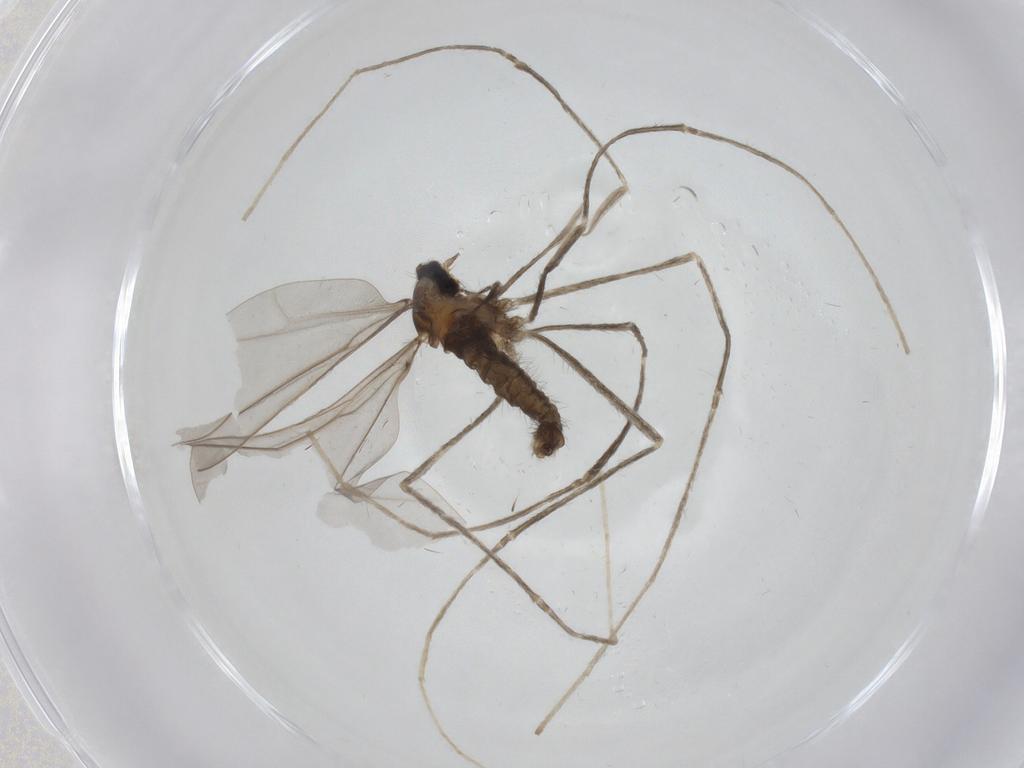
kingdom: Animalia
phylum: Arthropoda
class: Insecta
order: Diptera
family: Cecidomyiidae
